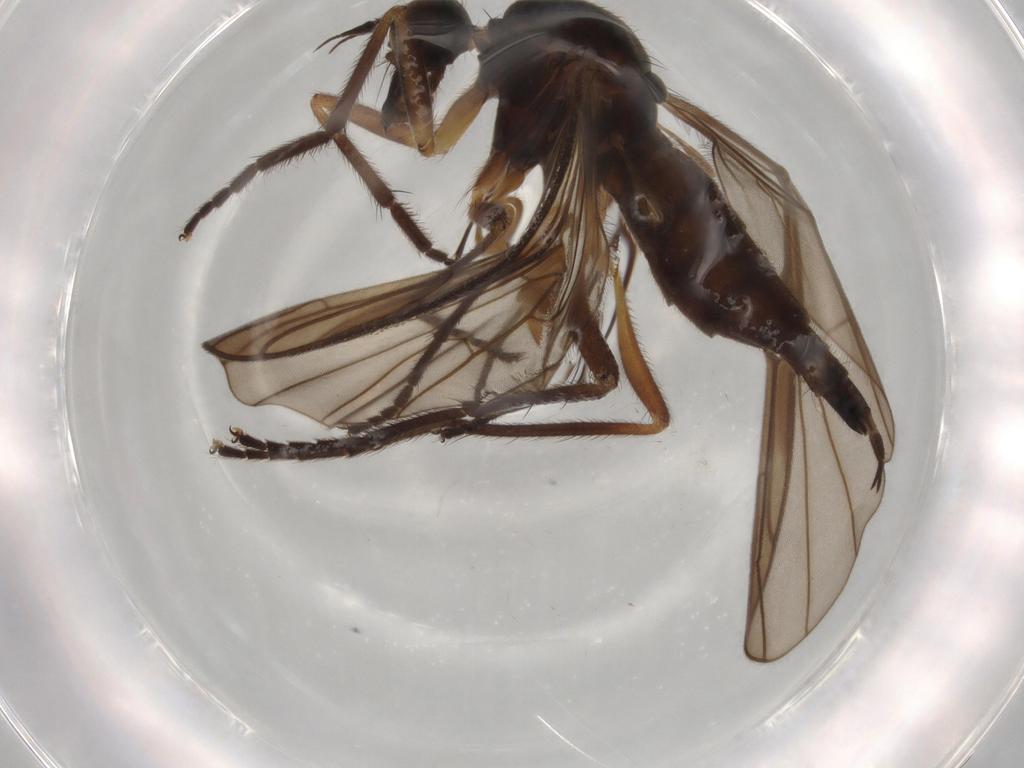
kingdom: Animalia
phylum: Arthropoda
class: Insecta
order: Diptera
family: Empididae
